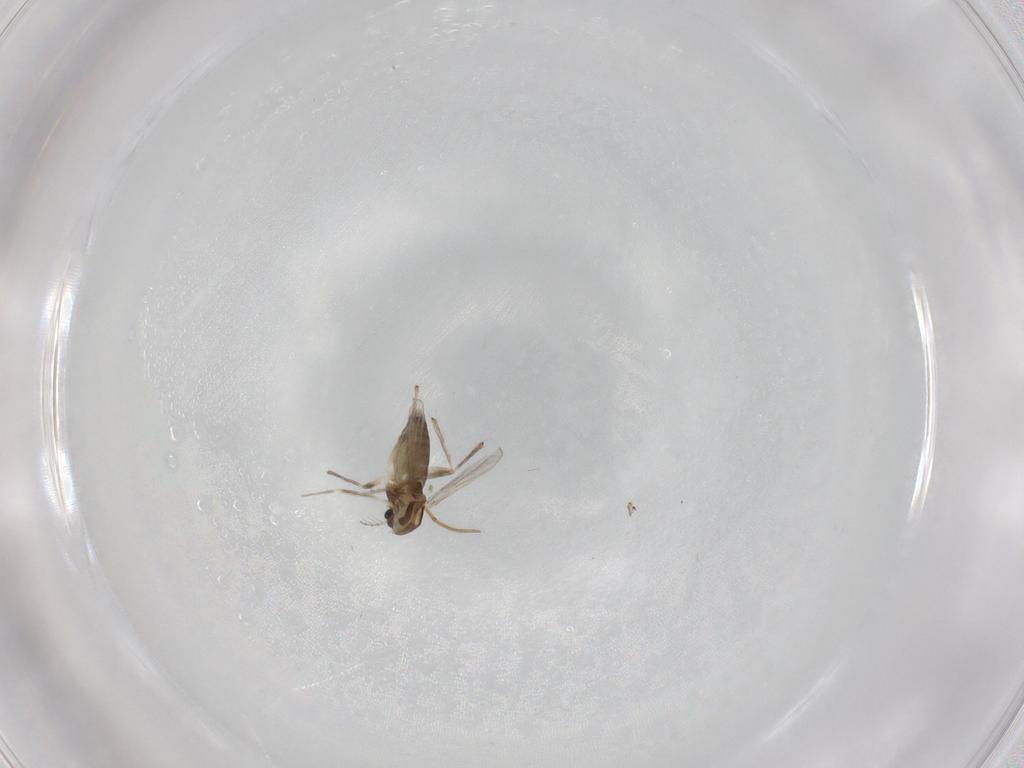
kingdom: Animalia
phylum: Arthropoda
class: Insecta
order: Diptera
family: Chironomidae
